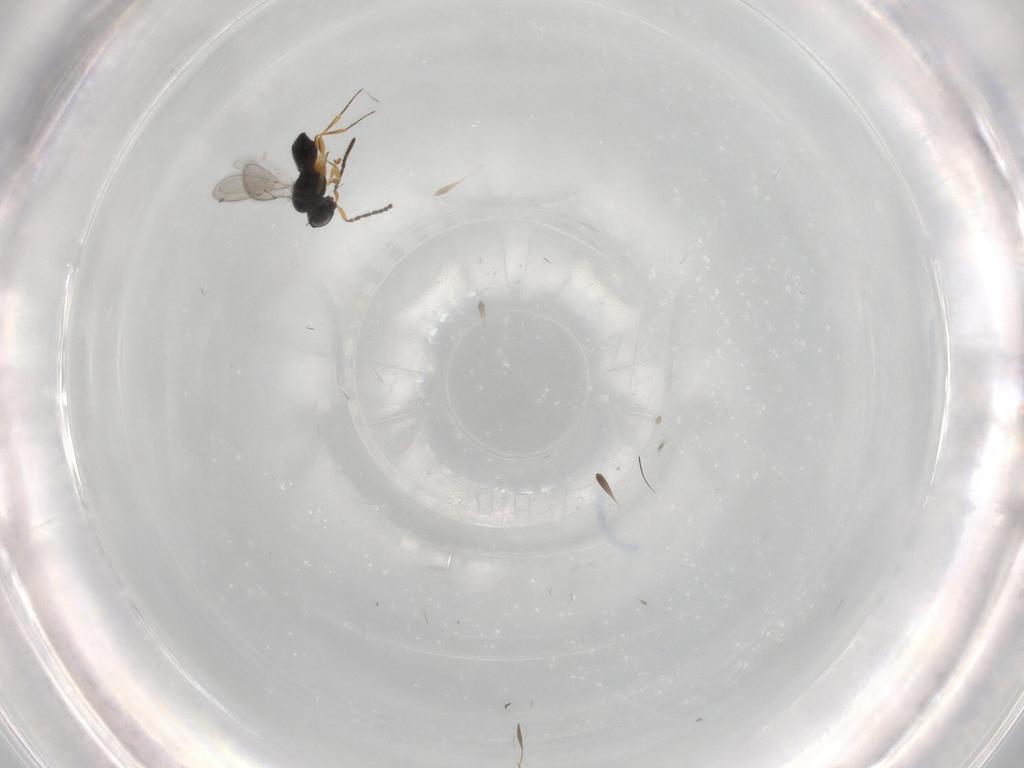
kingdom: Animalia
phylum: Arthropoda
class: Insecta
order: Hymenoptera
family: Scelionidae
